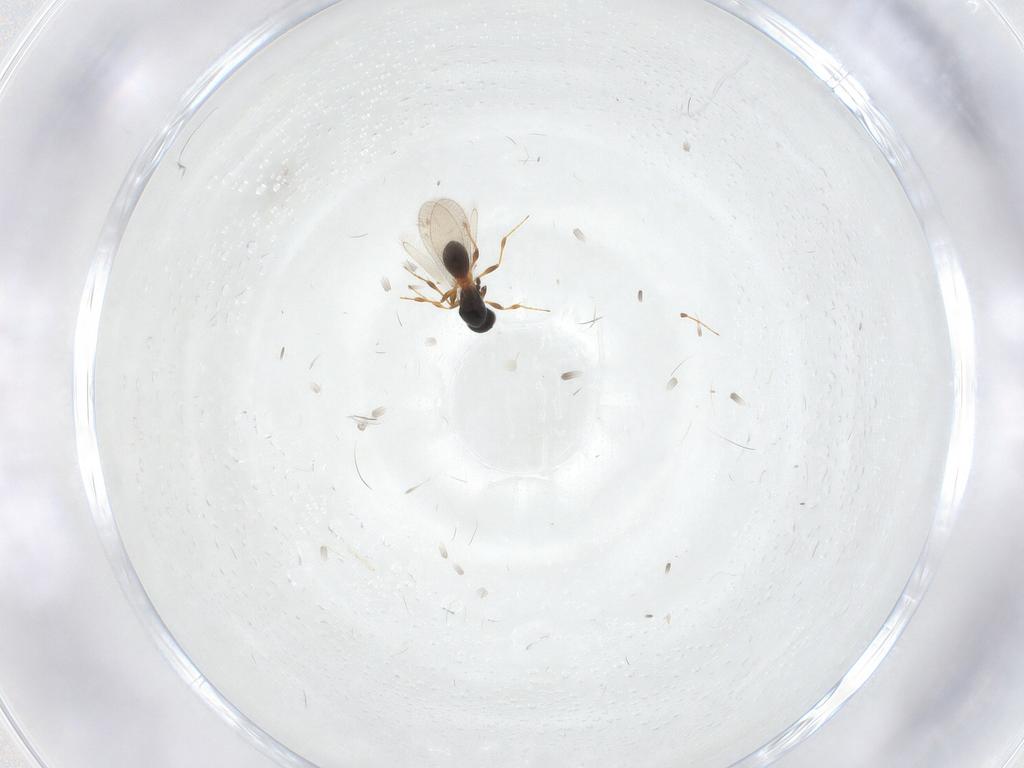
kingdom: Animalia
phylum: Arthropoda
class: Insecta
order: Hymenoptera
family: Platygastridae
